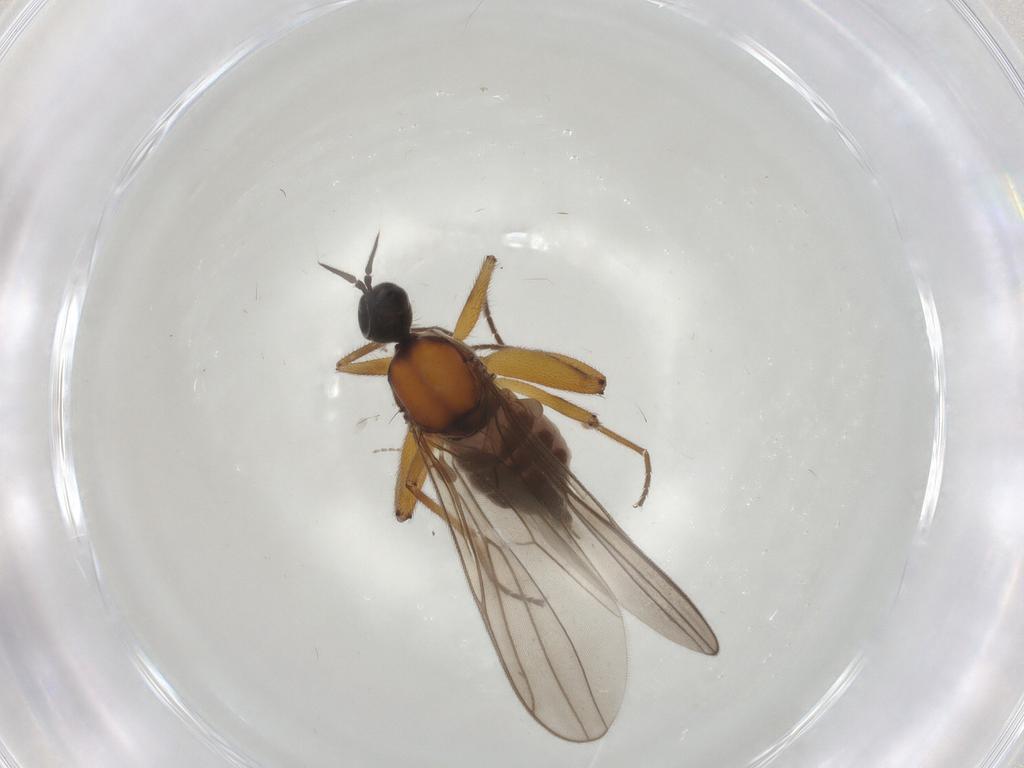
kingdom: Animalia
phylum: Arthropoda
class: Insecta
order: Diptera
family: Hybotidae
